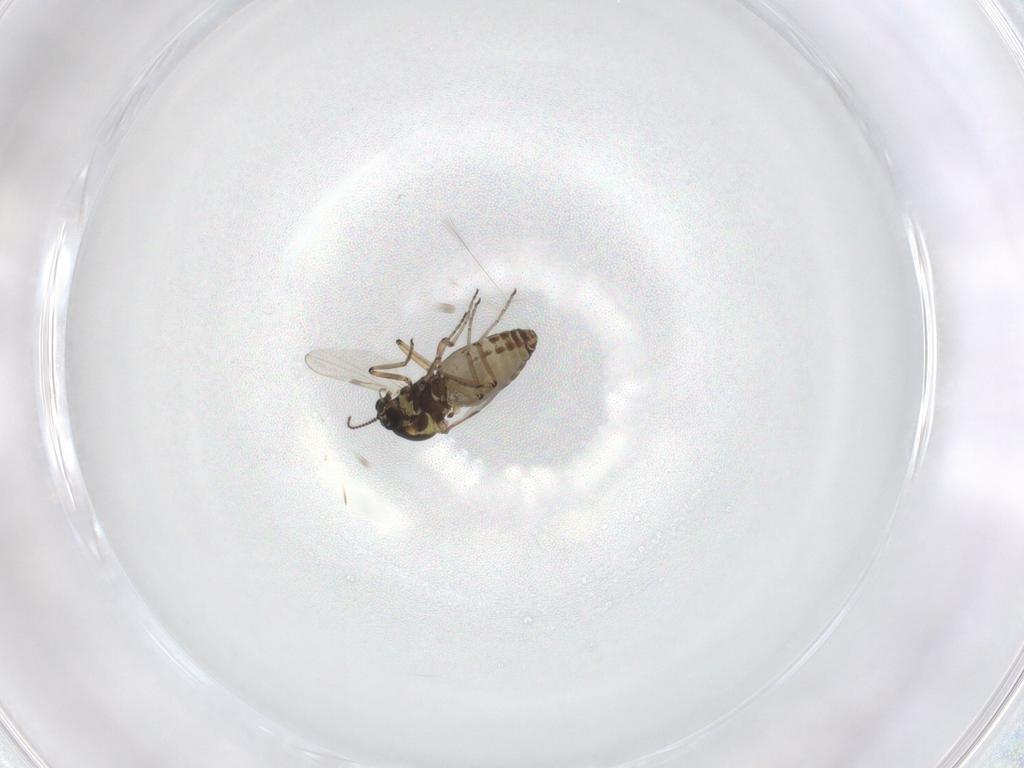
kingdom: Animalia
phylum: Arthropoda
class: Insecta
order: Diptera
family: Ceratopogonidae
